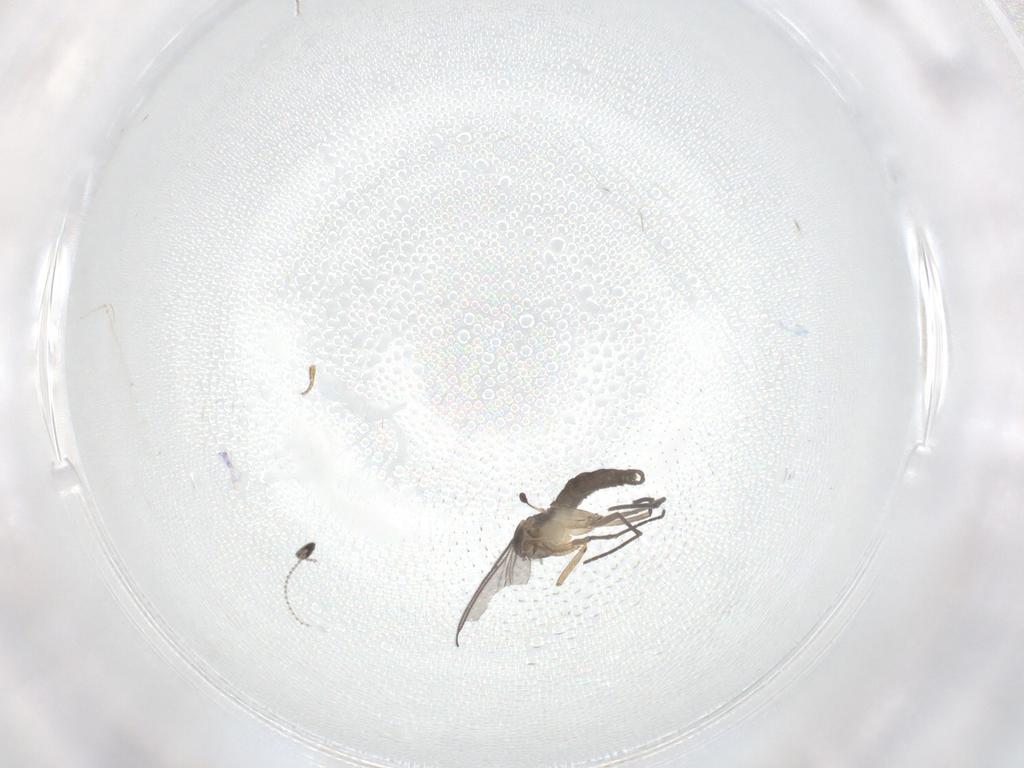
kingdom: Animalia
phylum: Arthropoda
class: Insecta
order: Diptera
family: Sciaridae
